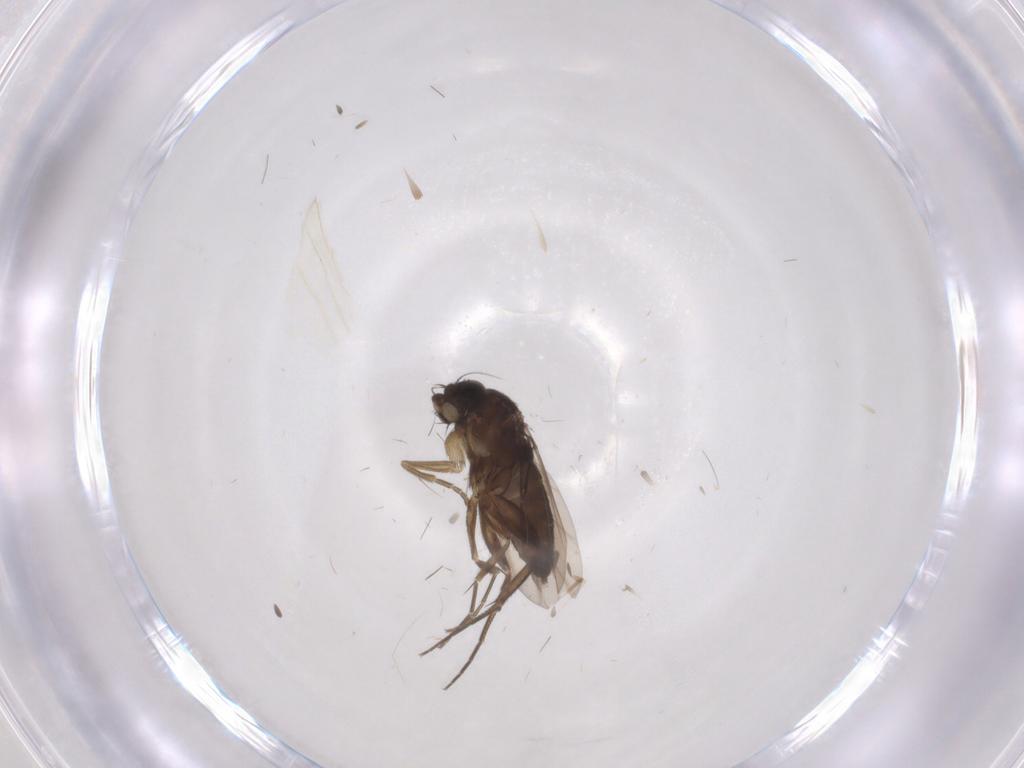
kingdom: Animalia
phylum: Arthropoda
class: Insecta
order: Diptera
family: Phoridae
